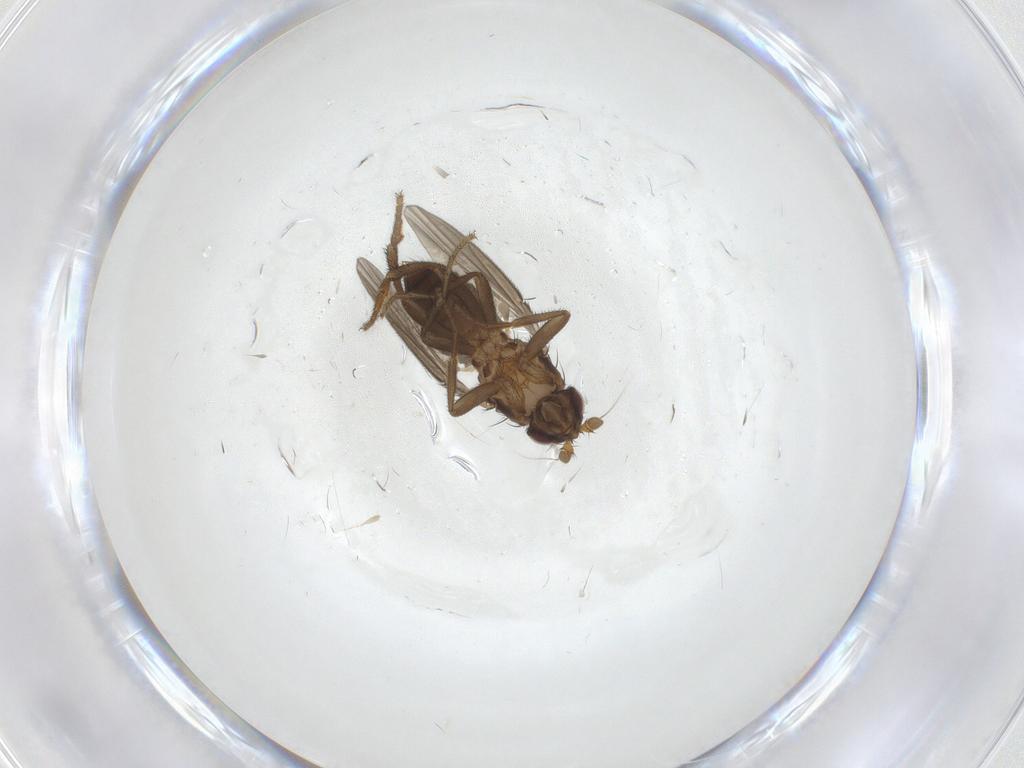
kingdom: Animalia
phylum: Arthropoda
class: Insecta
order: Diptera
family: Sphaeroceridae
